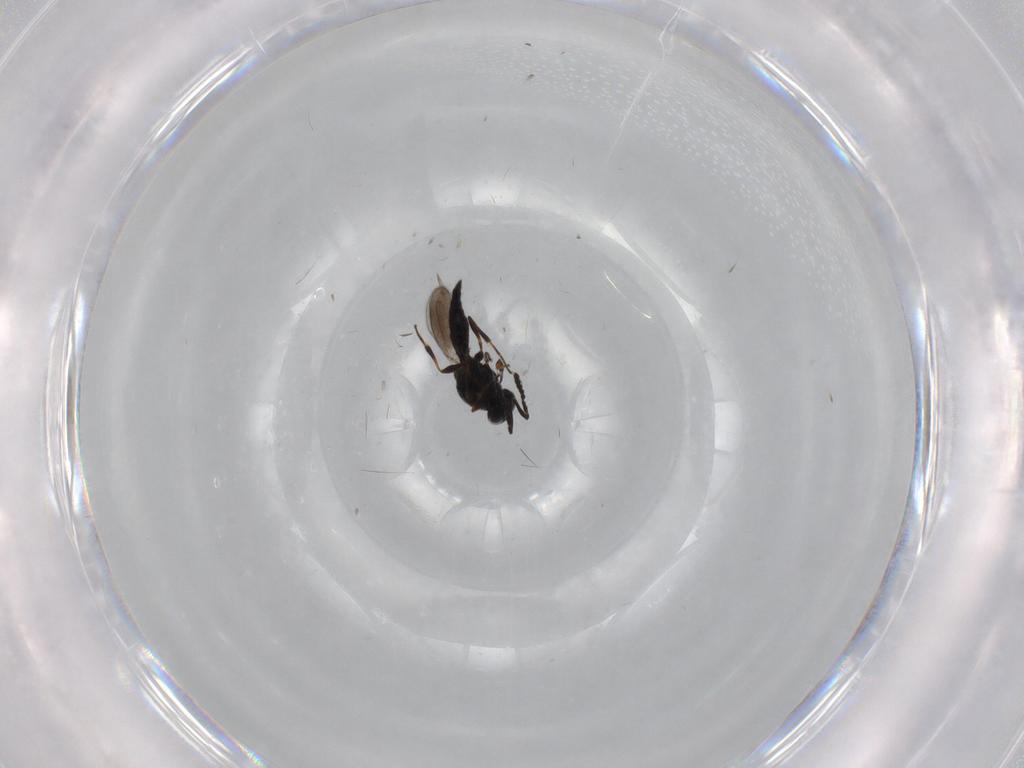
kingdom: Animalia
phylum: Arthropoda
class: Insecta
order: Hymenoptera
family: Platygastridae
